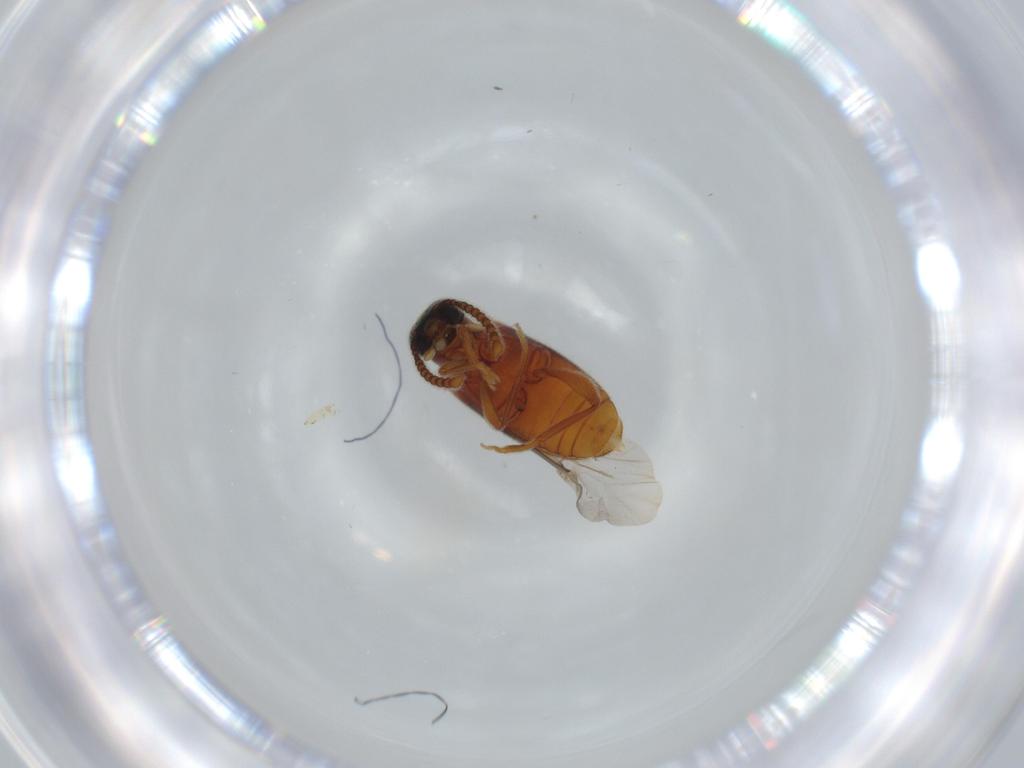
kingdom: Animalia
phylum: Arthropoda
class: Insecta
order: Coleoptera
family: Aderidae
